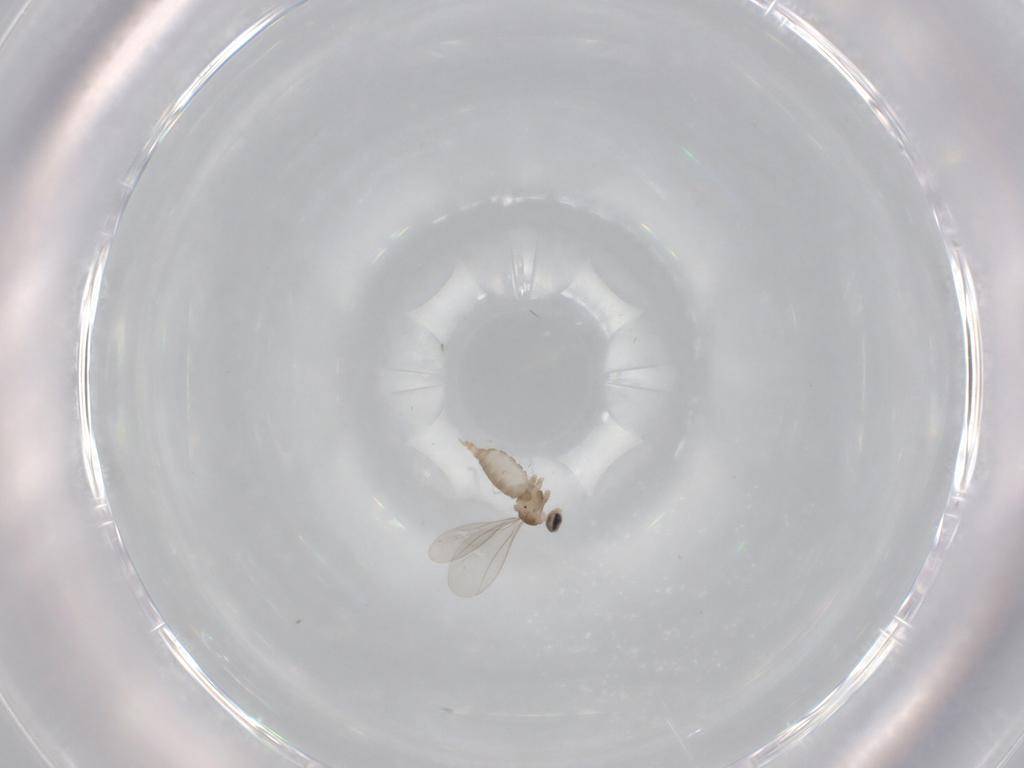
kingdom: Animalia
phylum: Arthropoda
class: Insecta
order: Diptera
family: Cecidomyiidae
